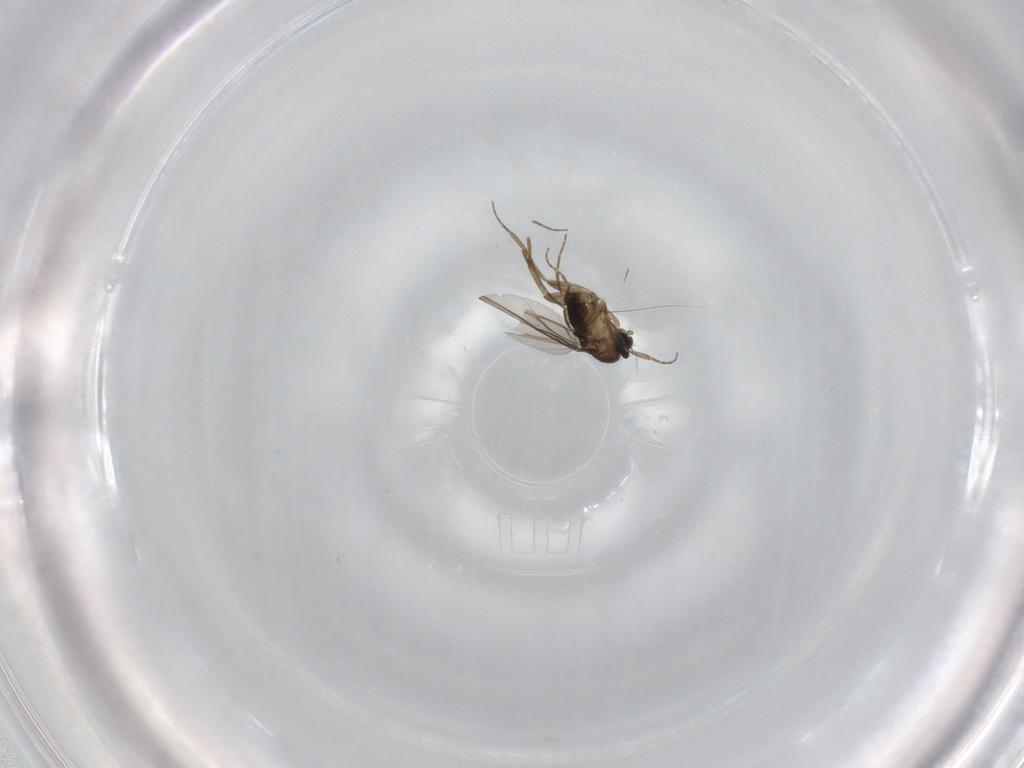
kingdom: Animalia
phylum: Arthropoda
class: Insecta
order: Diptera
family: Phoridae
